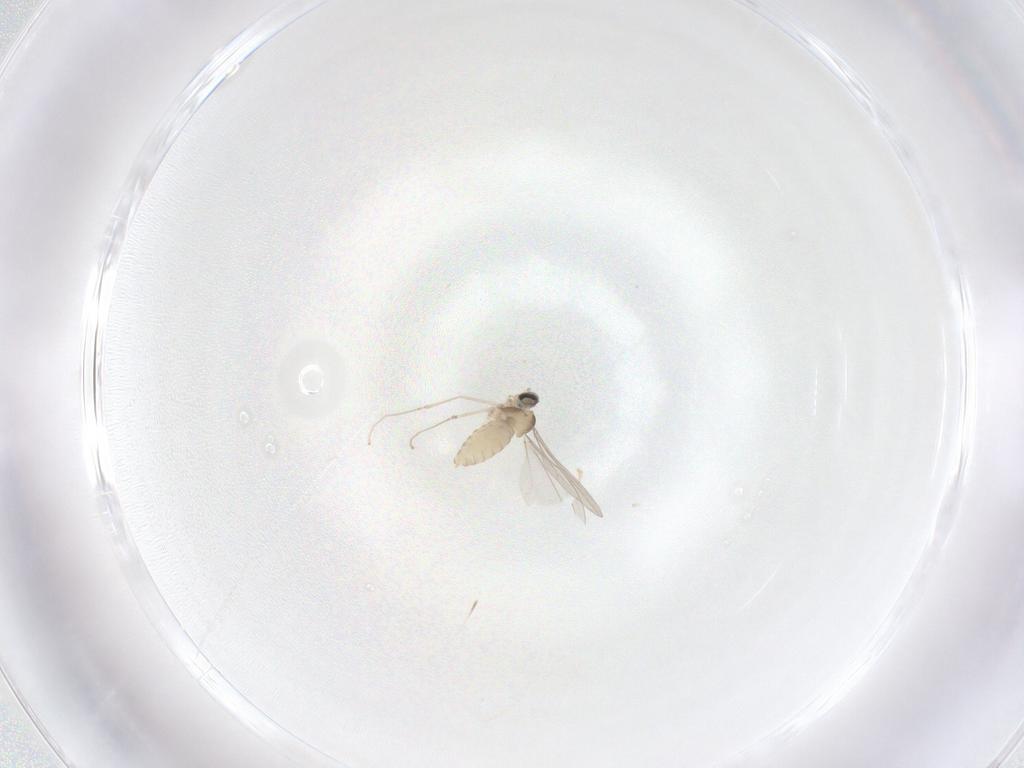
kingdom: Animalia
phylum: Arthropoda
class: Insecta
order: Diptera
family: Cecidomyiidae
